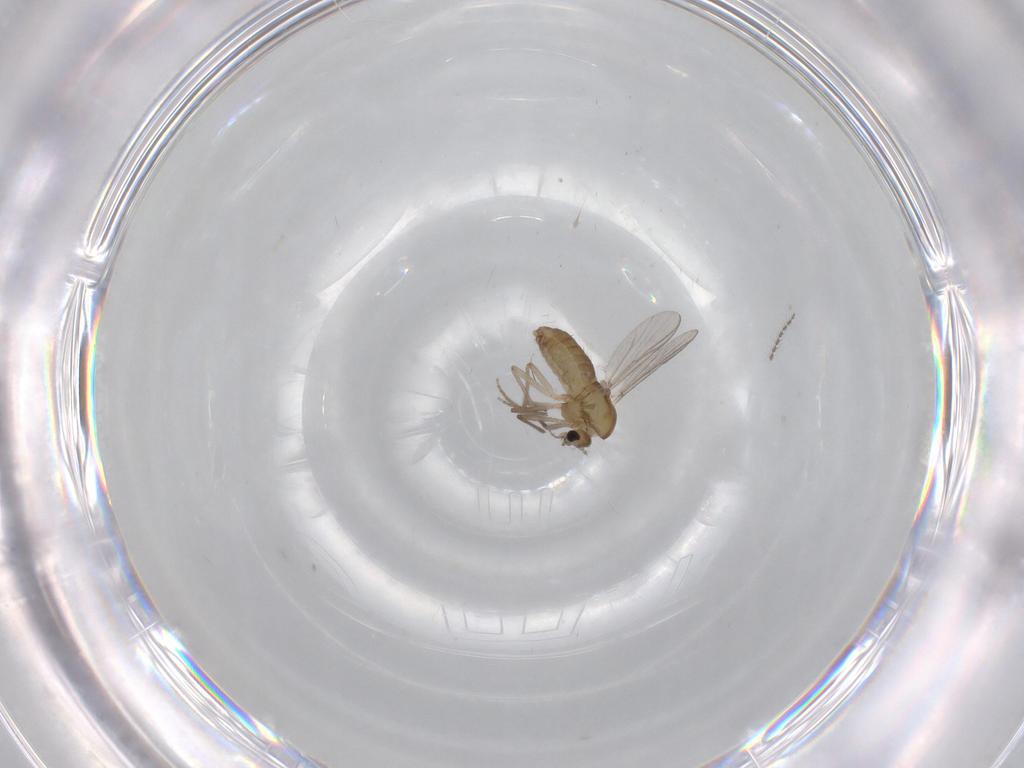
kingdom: Animalia
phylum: Arthropoda
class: Insecta
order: Diptera
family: Chironomidae
